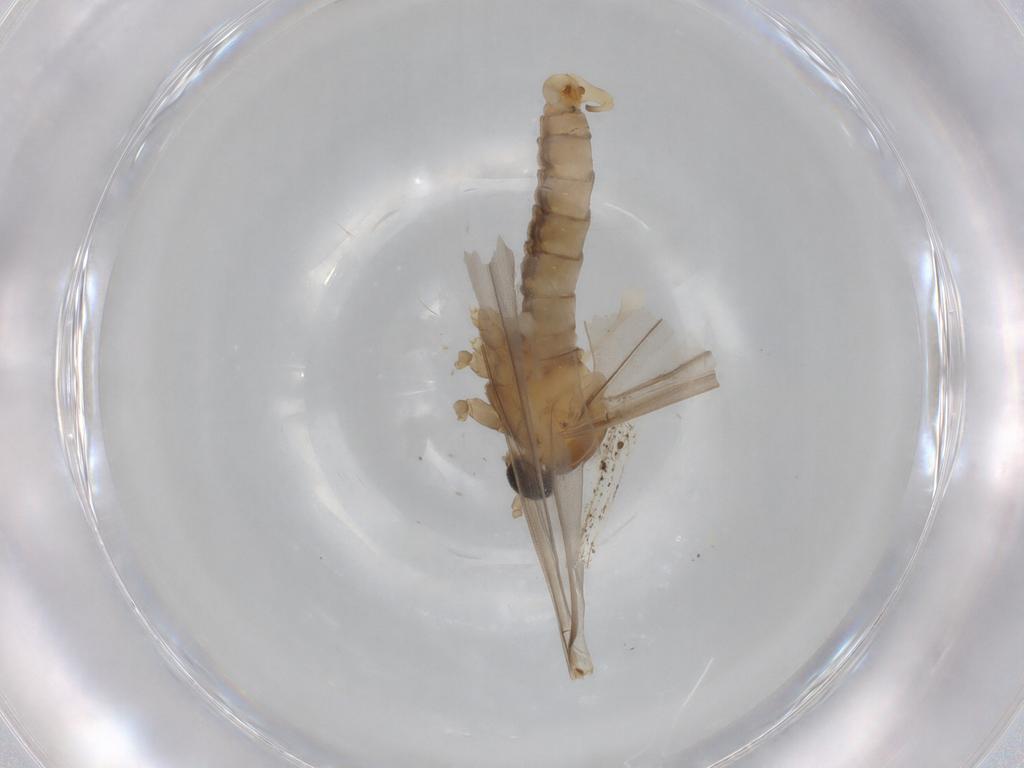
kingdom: Animalia
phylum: Arthropoda
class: Insecta
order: Diptera
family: Cecidomyiidae
